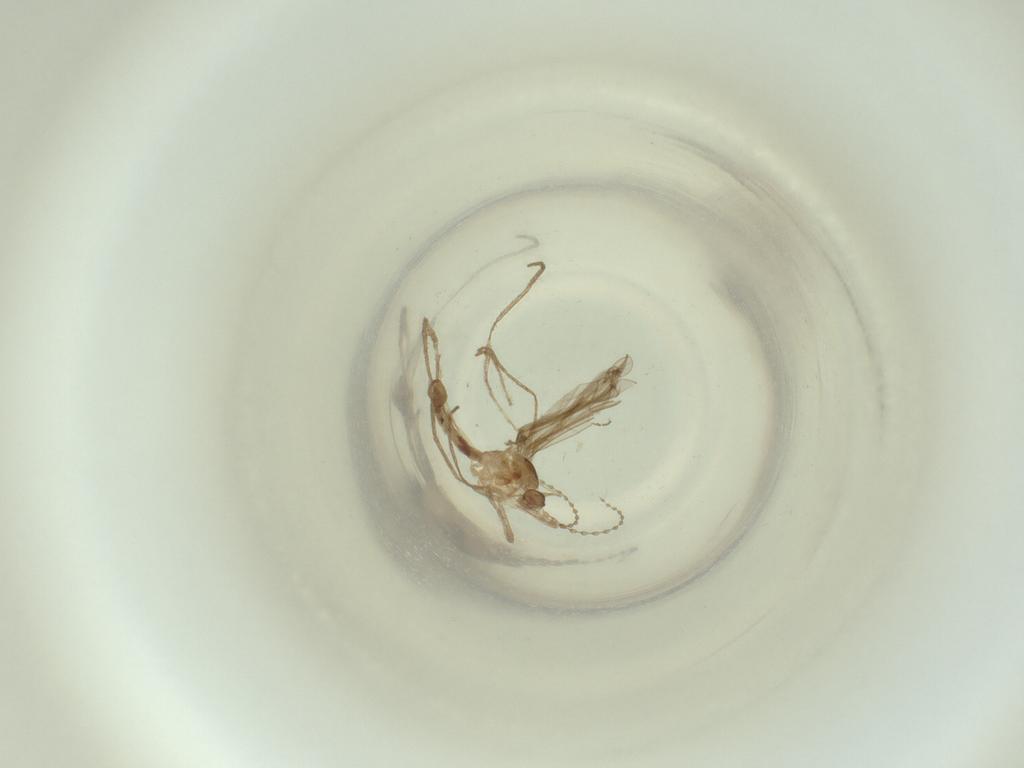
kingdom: Animalia
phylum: Arthropoda
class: Insecta
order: Diptera
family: Cecidomyiidae
